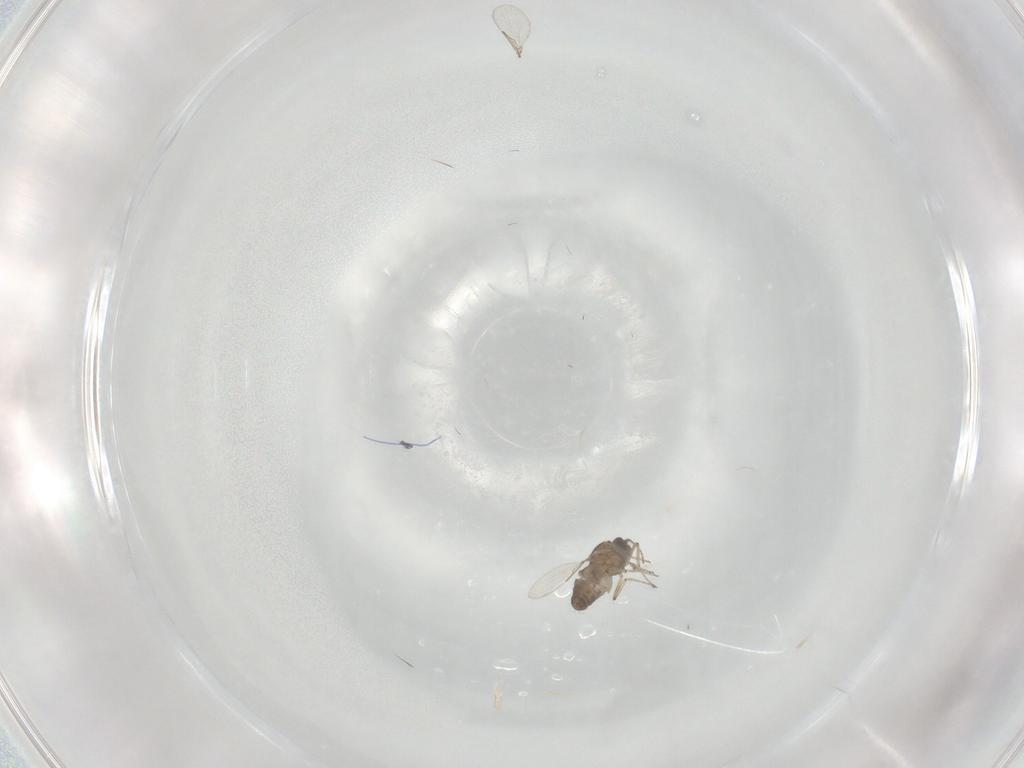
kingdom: Animalia
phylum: Arthropoda
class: Insecta
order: Diptera
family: Ceratopogonidae
